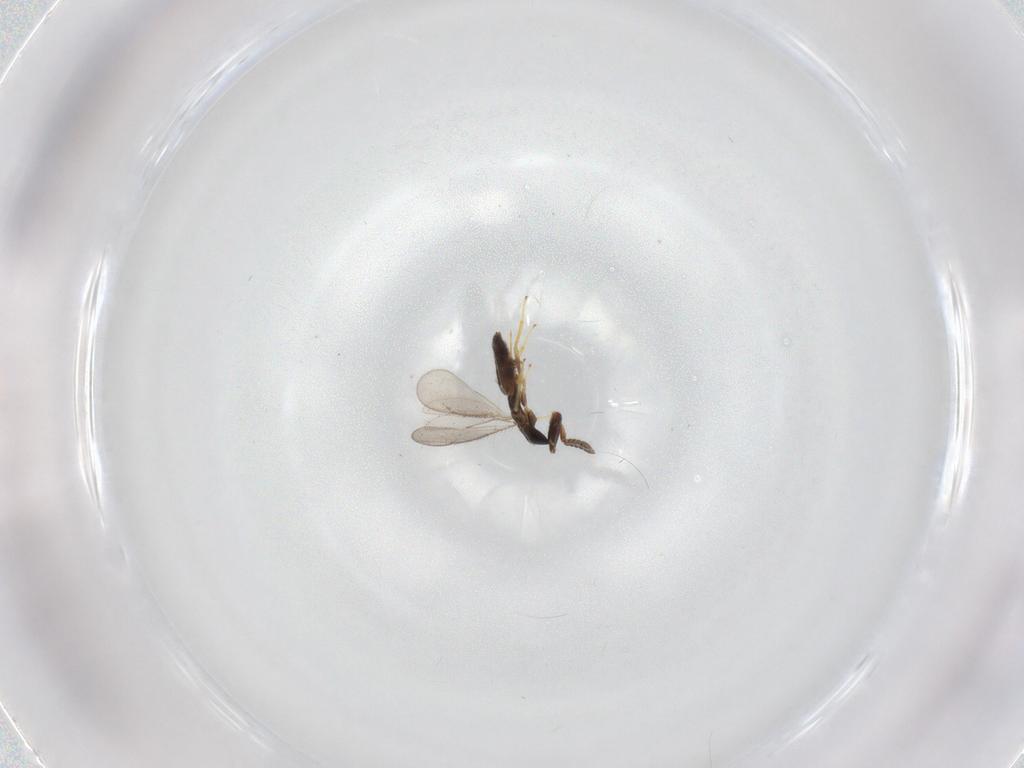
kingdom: Animalia
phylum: Arthropoda
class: Insecta
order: Hymenoptera
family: Eulophidae
